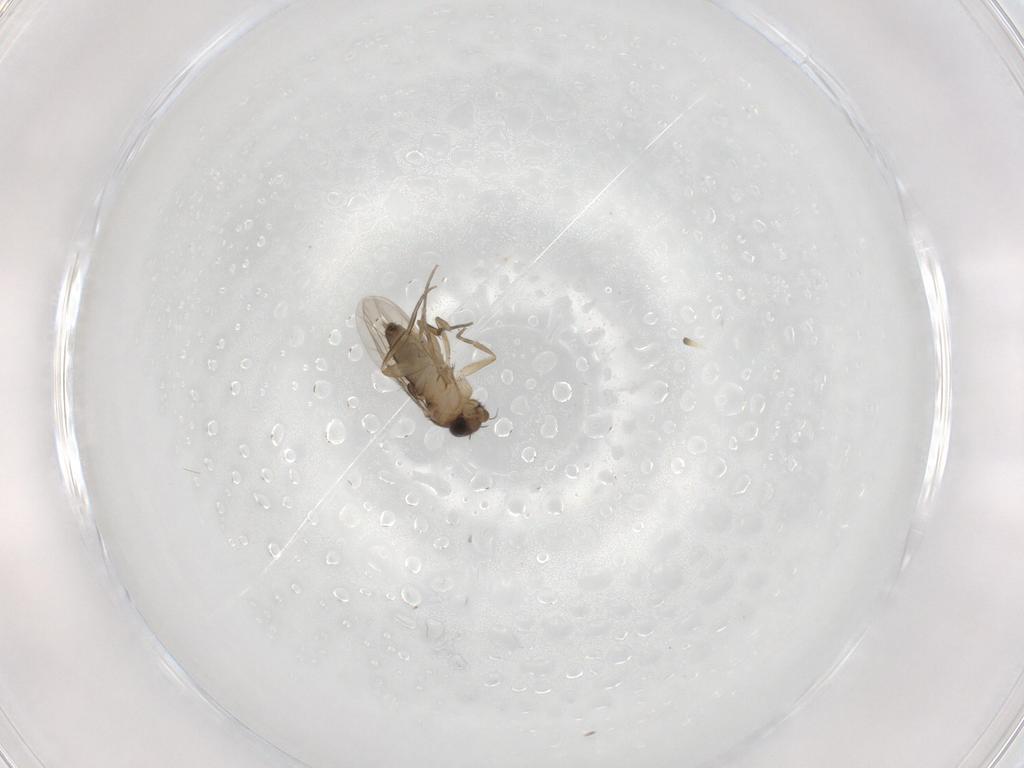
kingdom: Animalia
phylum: Arthropoda
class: Insecta
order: Diptera
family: Phoridae
